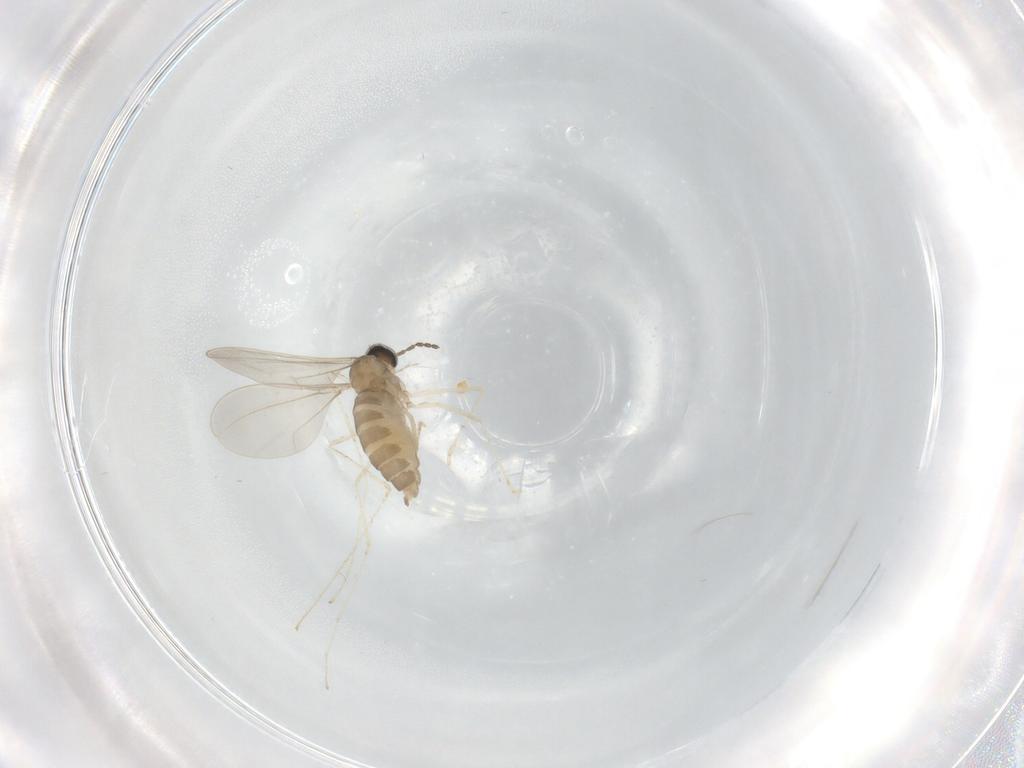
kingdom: Animalia
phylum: Arthropoda
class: Insecta
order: Diptera
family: Cecidomyiidae
